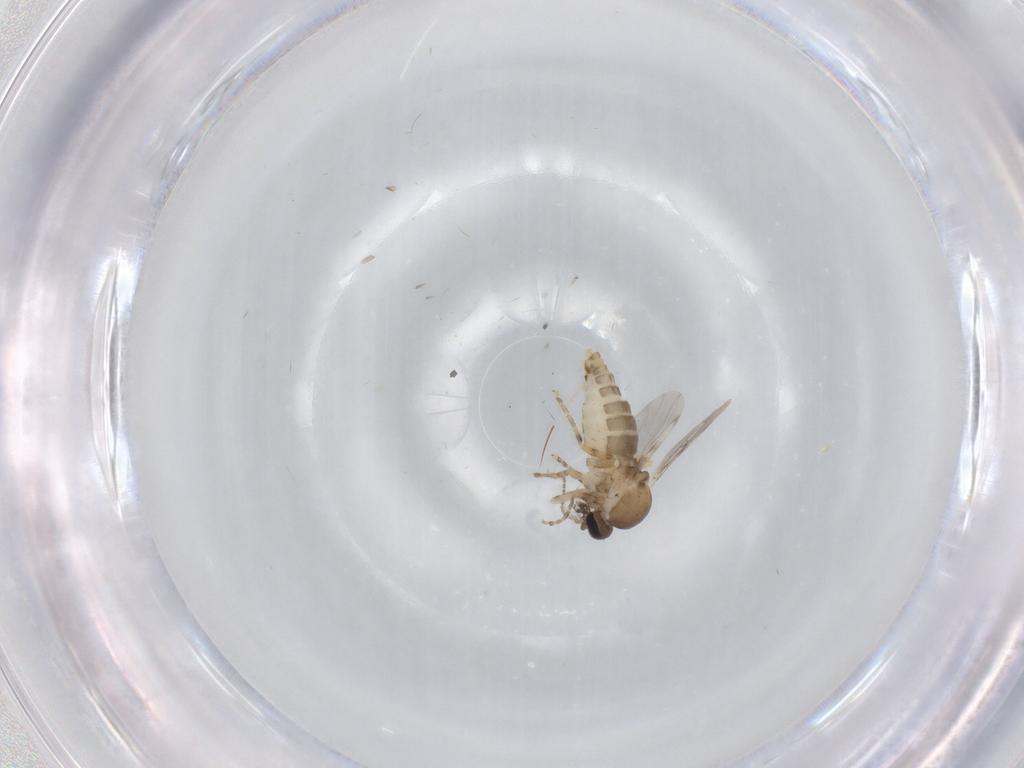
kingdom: Animalia
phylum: Arthropoda
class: Insecta
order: Diptera
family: Ceratopogonidae
